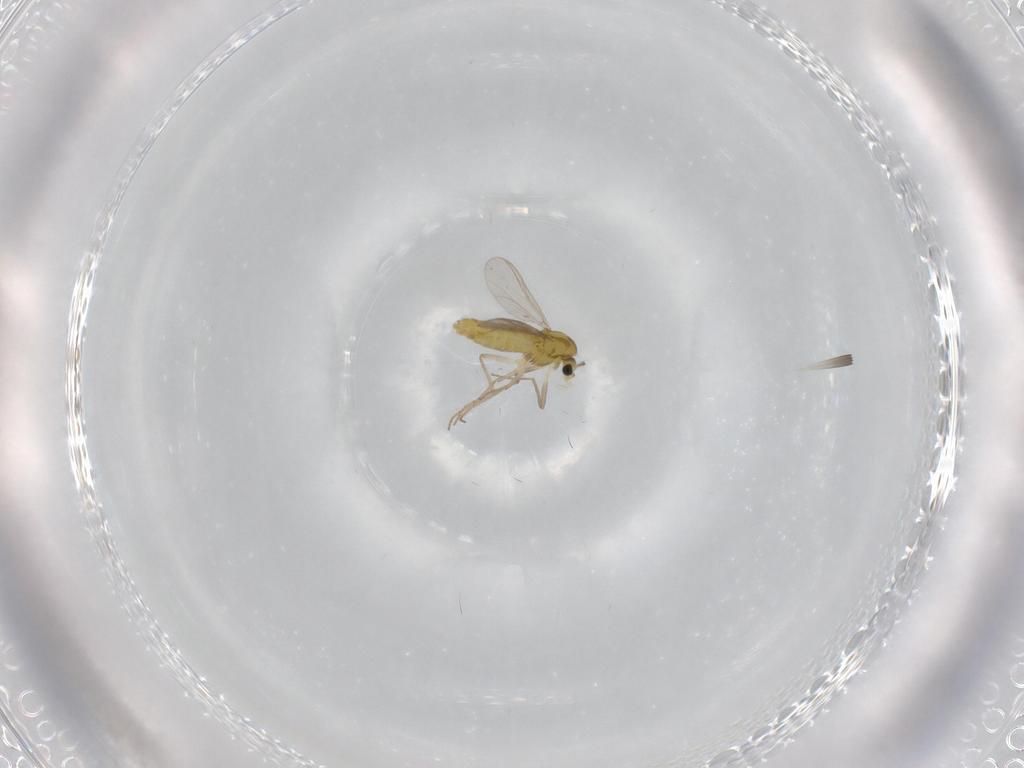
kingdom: Animalia
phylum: Arthropoda
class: Insecta
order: Diptera
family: Chironomidae
